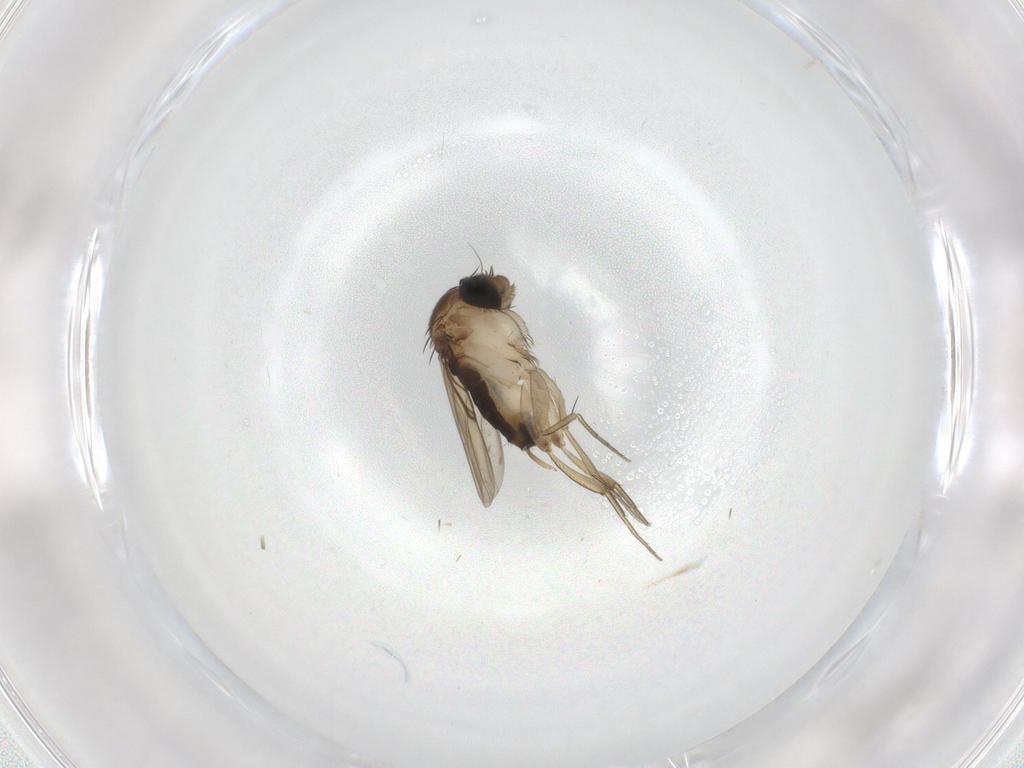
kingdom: Animalia
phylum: Arthropoda
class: Insecta
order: Diptera
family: Phoridae
